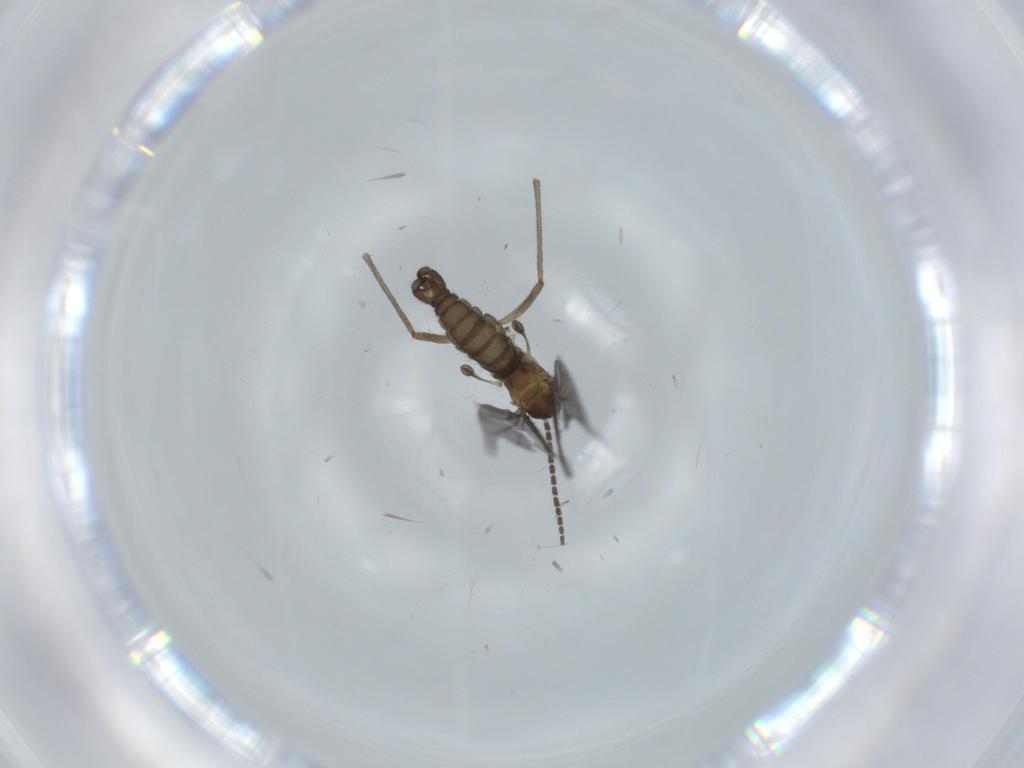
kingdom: Animalia
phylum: Arthropoda
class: Insecta
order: Diptera
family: Sciaridae
